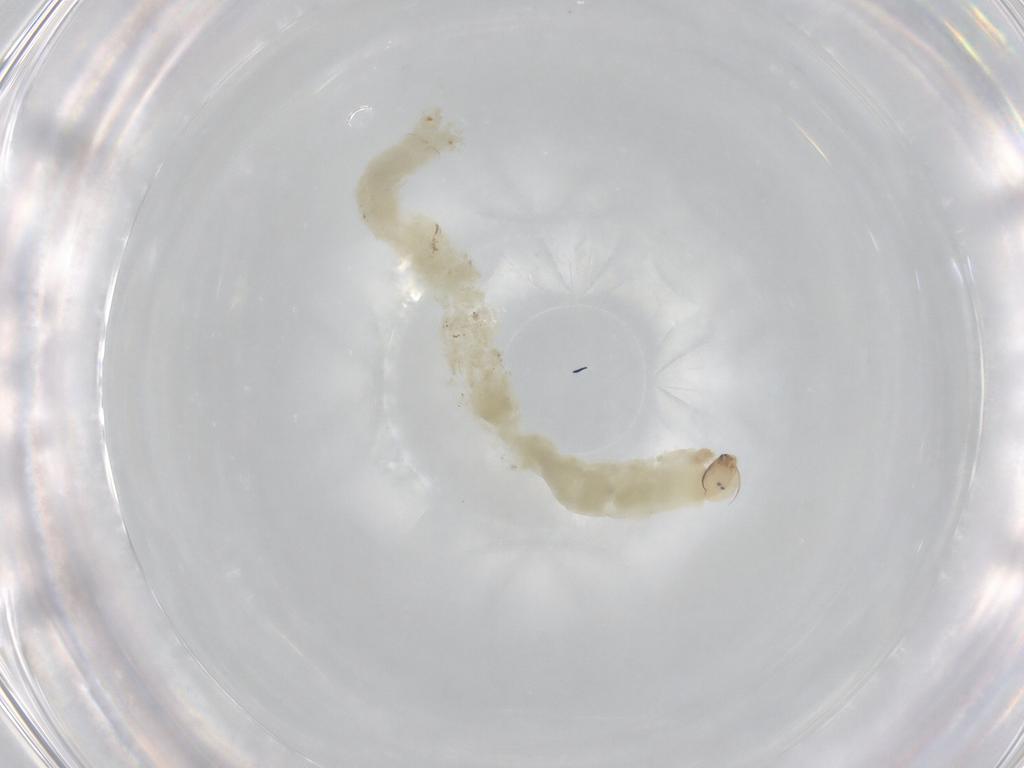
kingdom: Animalia
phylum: Arthropoda
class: Insecta
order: Diptera
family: Chironomidae
